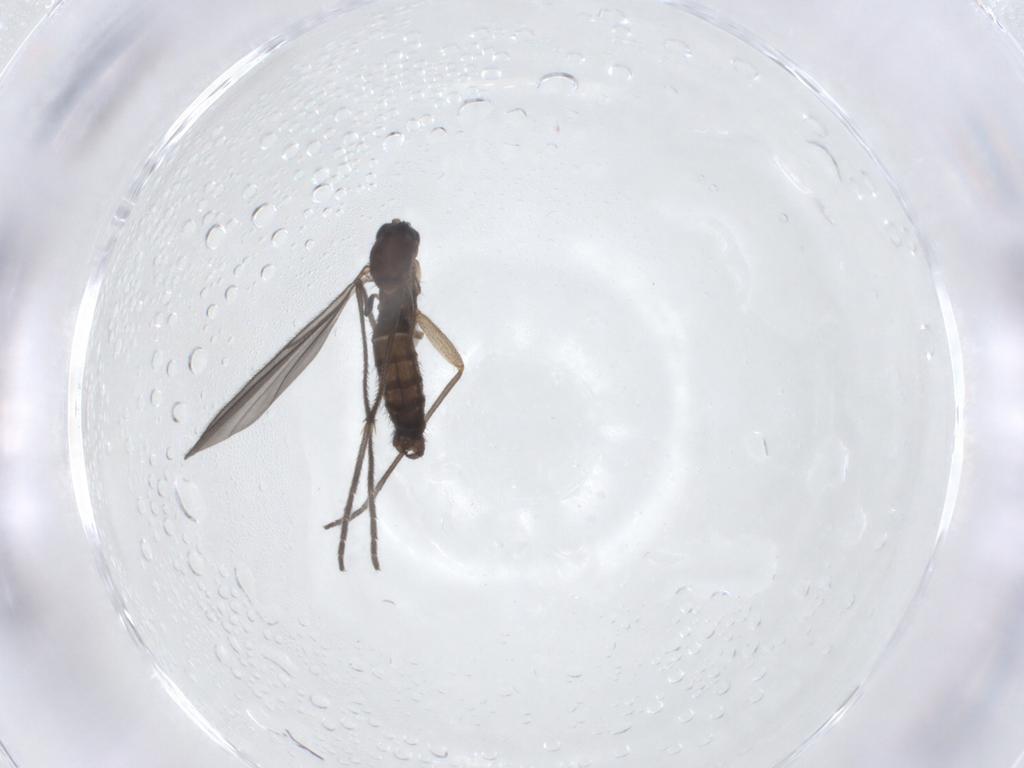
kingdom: Animalia
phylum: Arthropoda
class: Insecta
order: Diptera
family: Sciaridae
